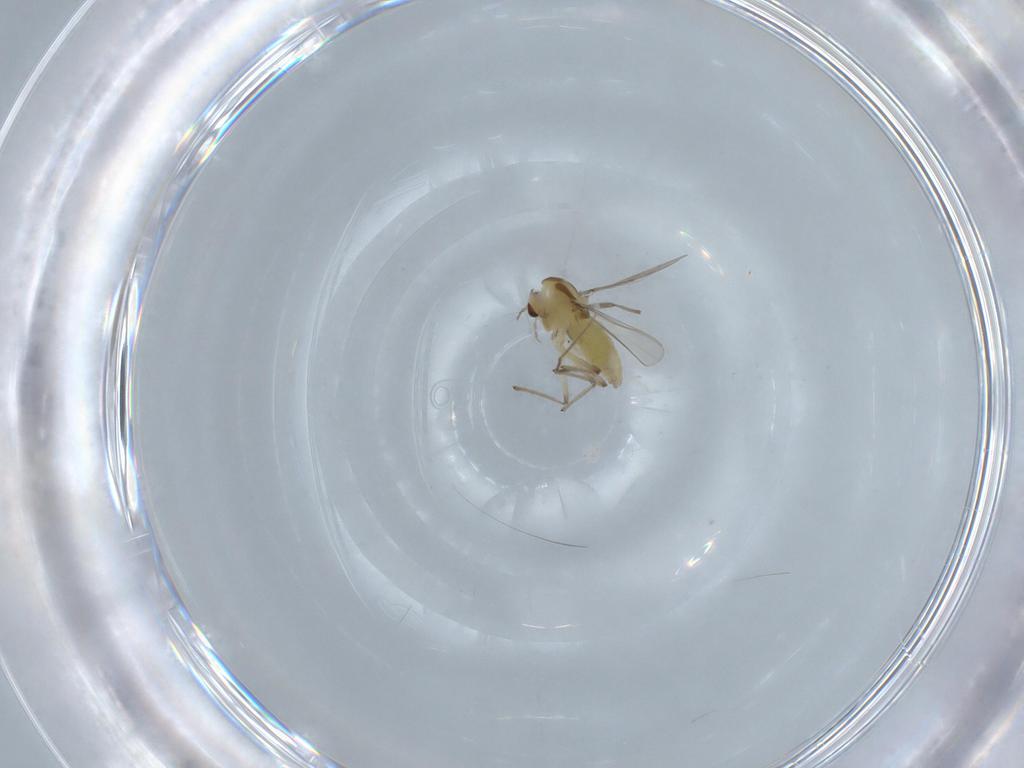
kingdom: Animalia
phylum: Arthropoda
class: Insecta
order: Diptera
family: Chironomidae
